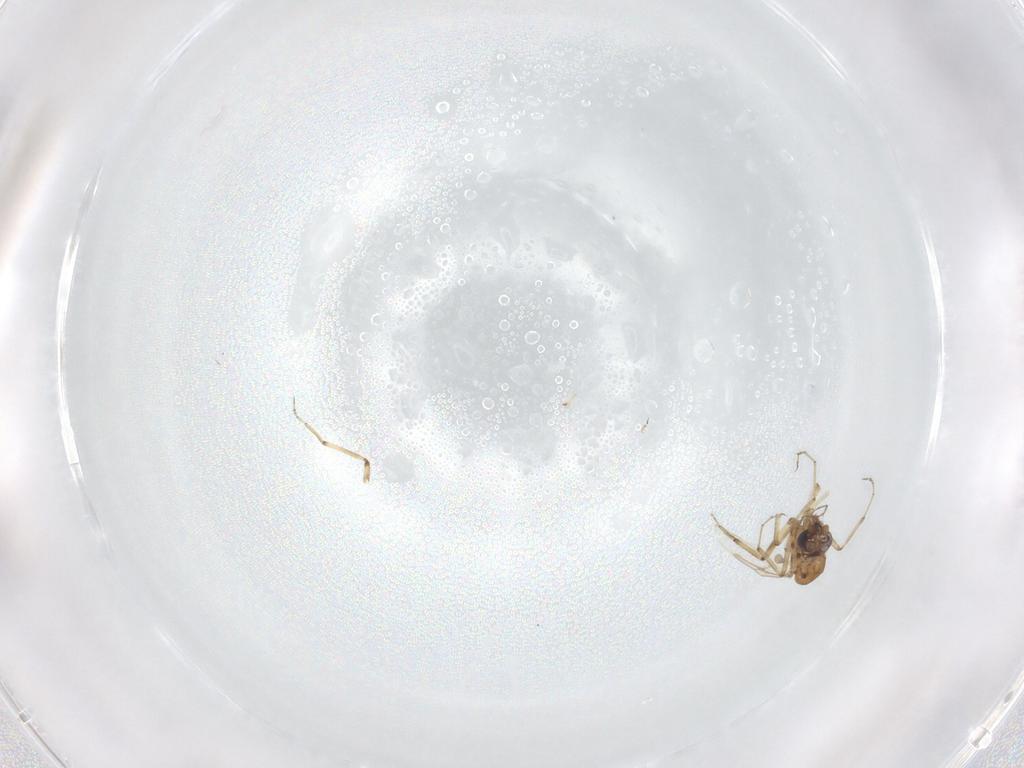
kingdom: Animalia
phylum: Arthropoda
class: Insecta
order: Diptera
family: Ceratopogonidae
